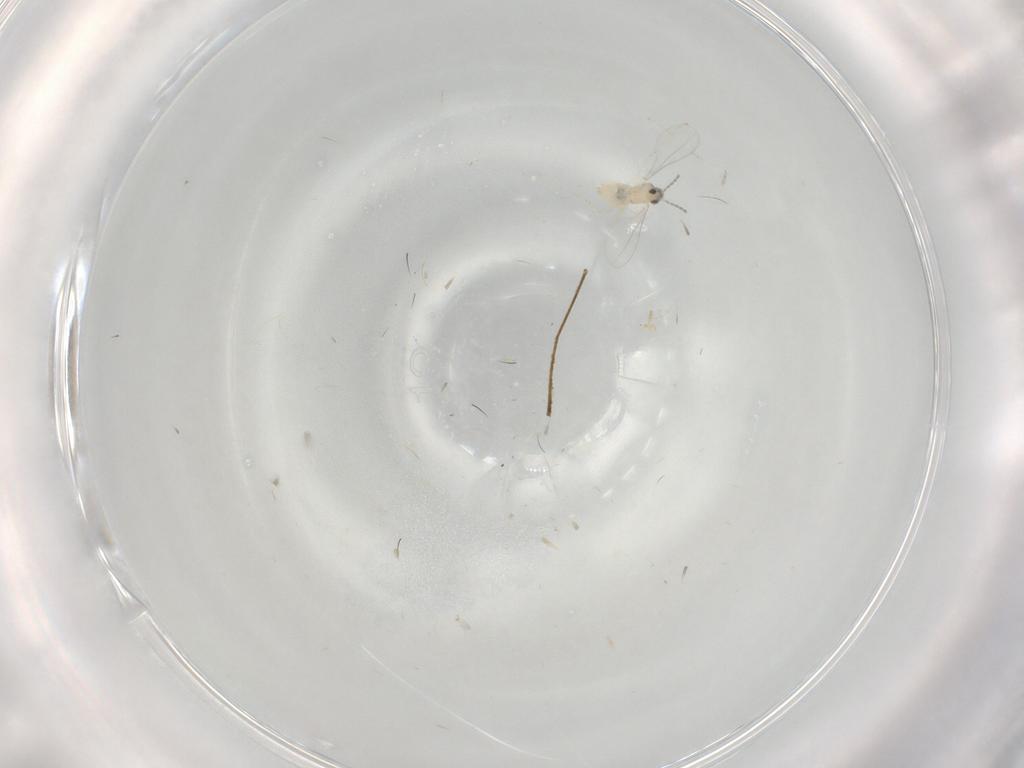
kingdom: Animalia
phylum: Arthropoda
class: Insecta
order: Diptera
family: Cecidomyiidae
